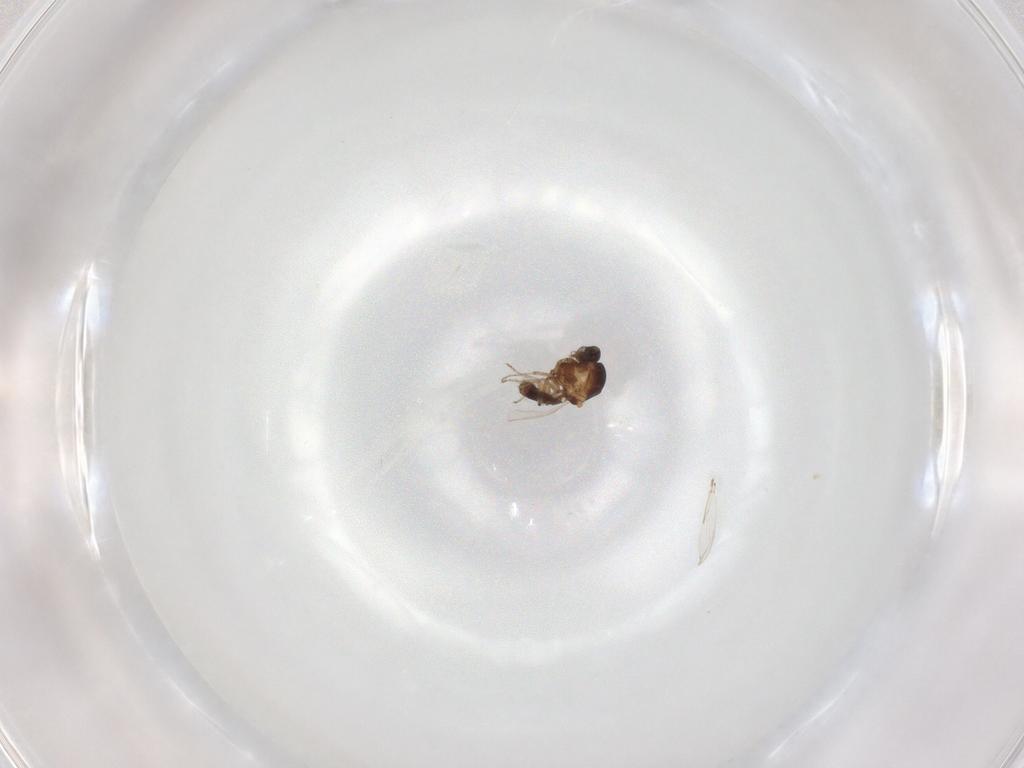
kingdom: Animalia
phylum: Arthropoda
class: Insecta
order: Diptera
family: Ceratopogonidae
